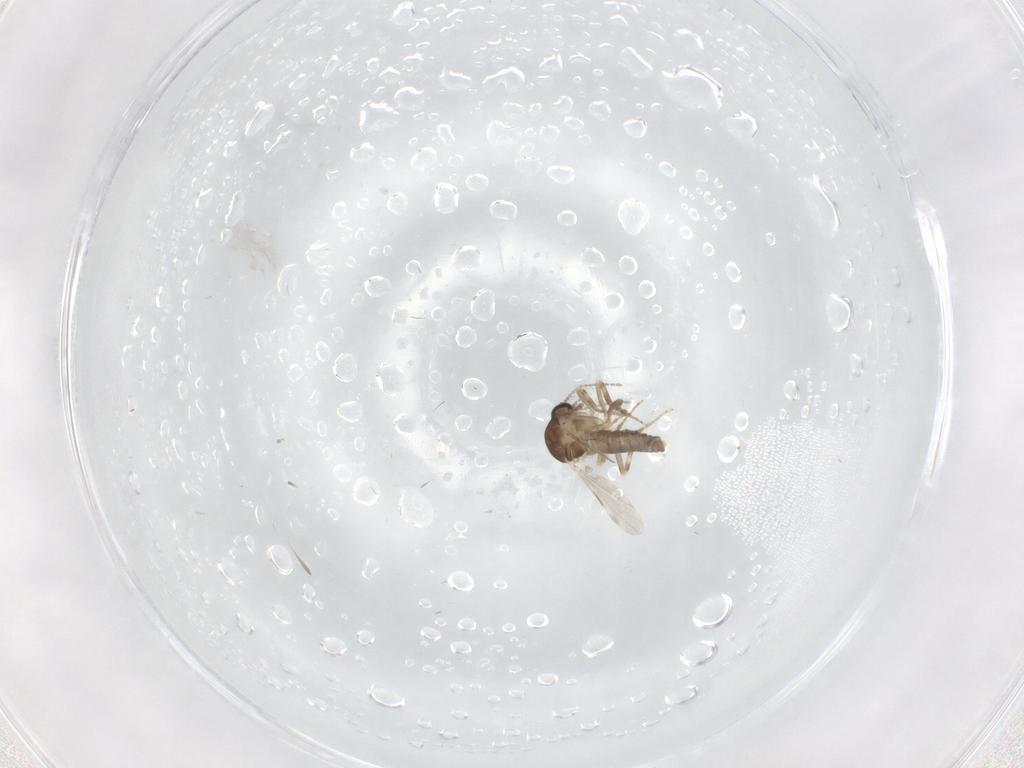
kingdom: Animalia
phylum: Arthropoda
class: Insecta
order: Diptera
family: Ceratopogonidae
